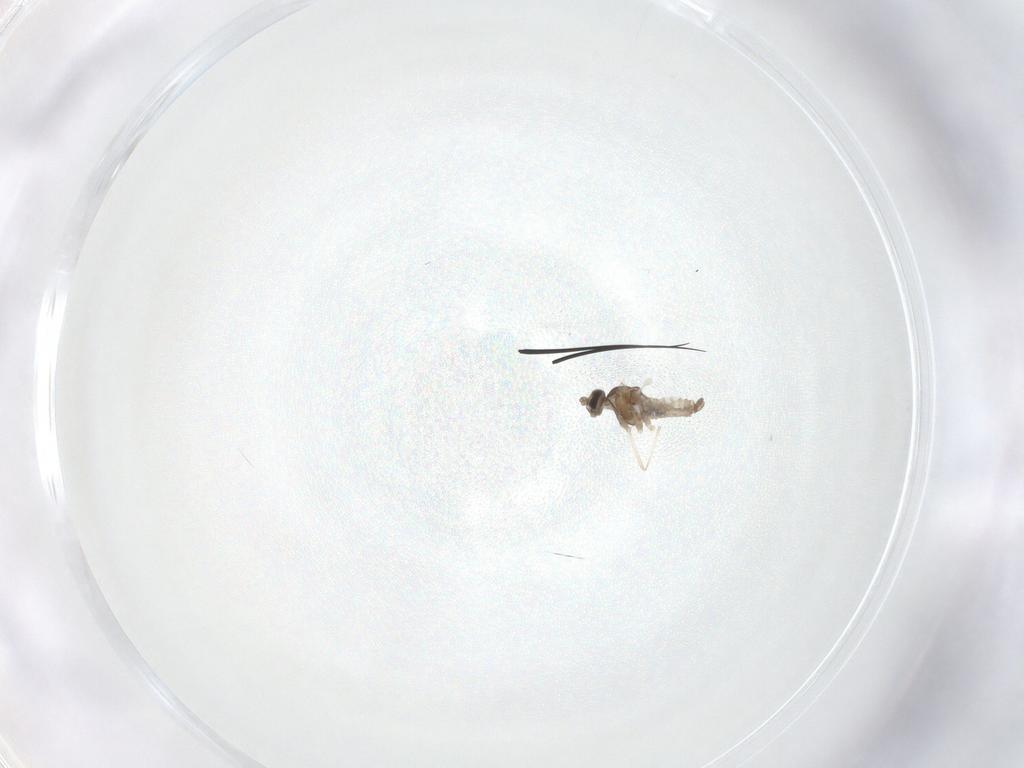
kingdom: Animalia
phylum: Arthropoda
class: Insecta
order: Diptera
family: Cecidomyiidae
